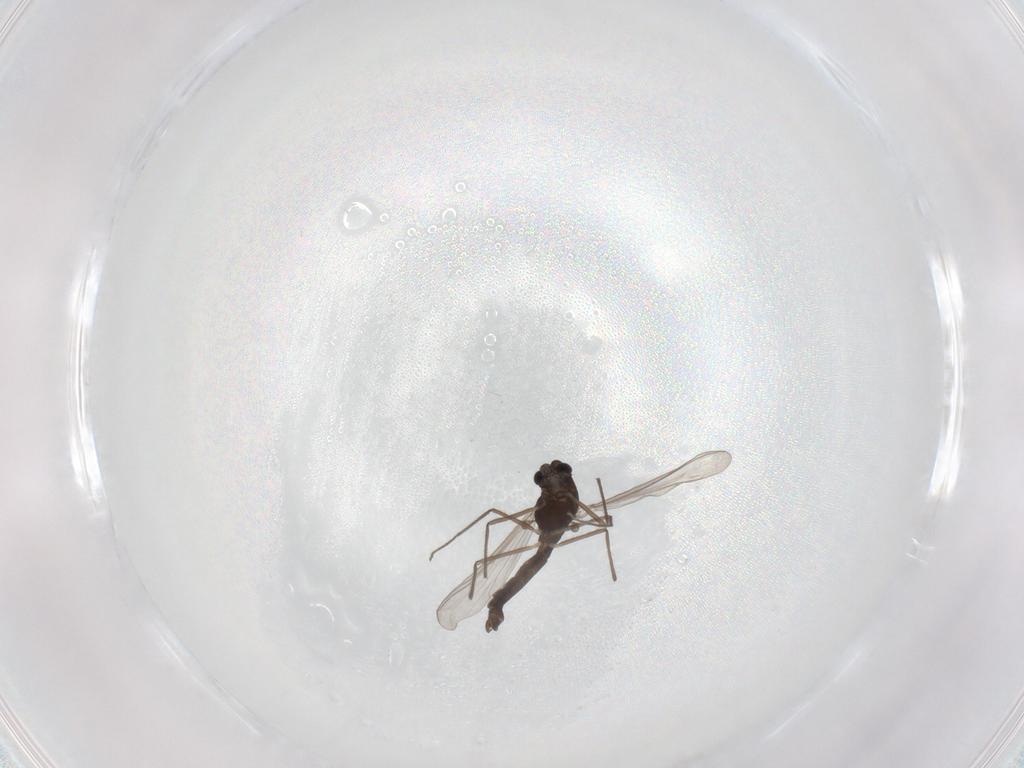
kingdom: Animalia
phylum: Arthropoda
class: Insecta
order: Diptera
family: Chironomidae
